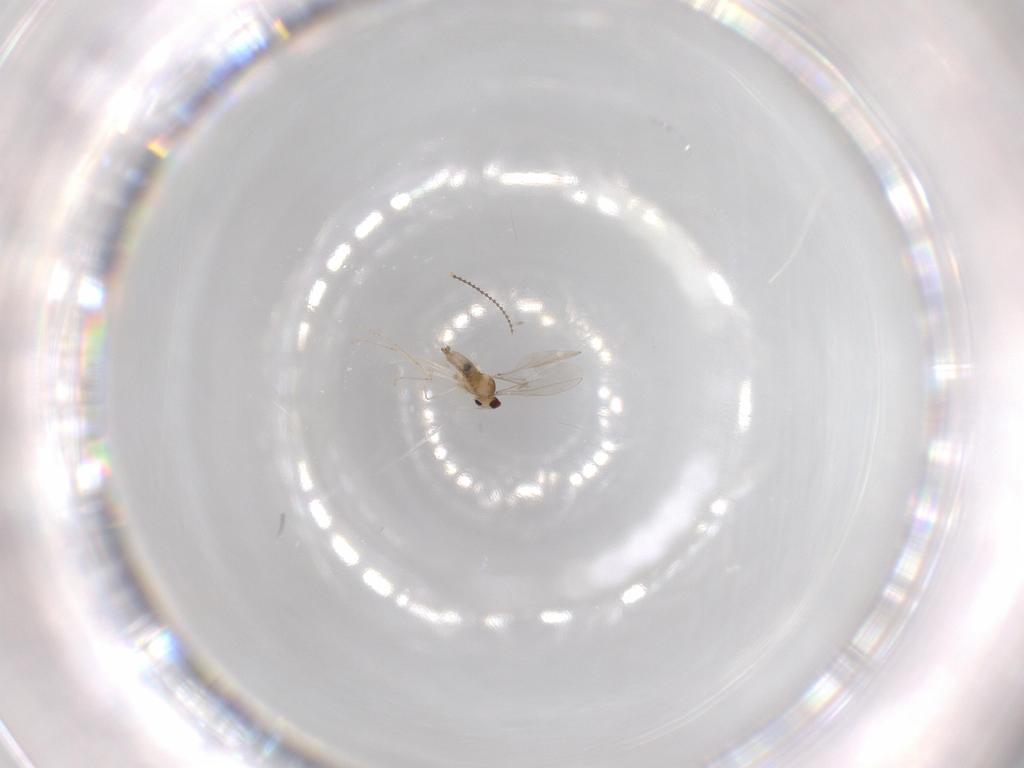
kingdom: Animalia
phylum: Arthropoda
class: Insecta
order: Diptera
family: Cecidomyiidae
